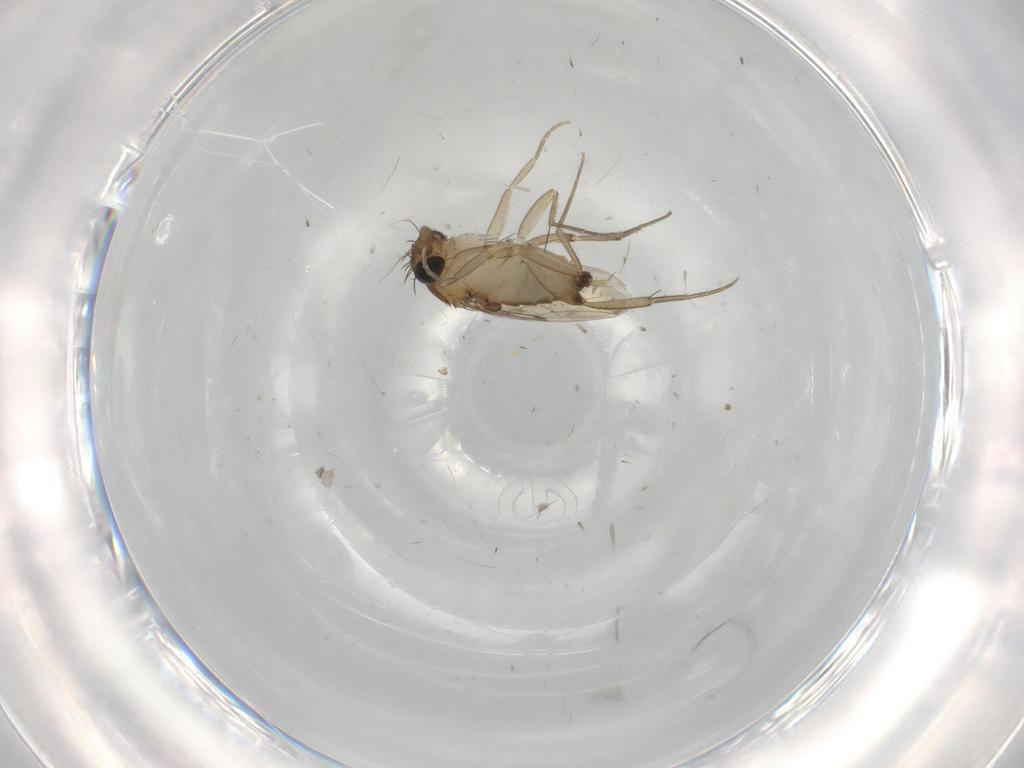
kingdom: Animalia
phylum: Arthropoda
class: Insecta
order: Diptera
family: Phoridae
